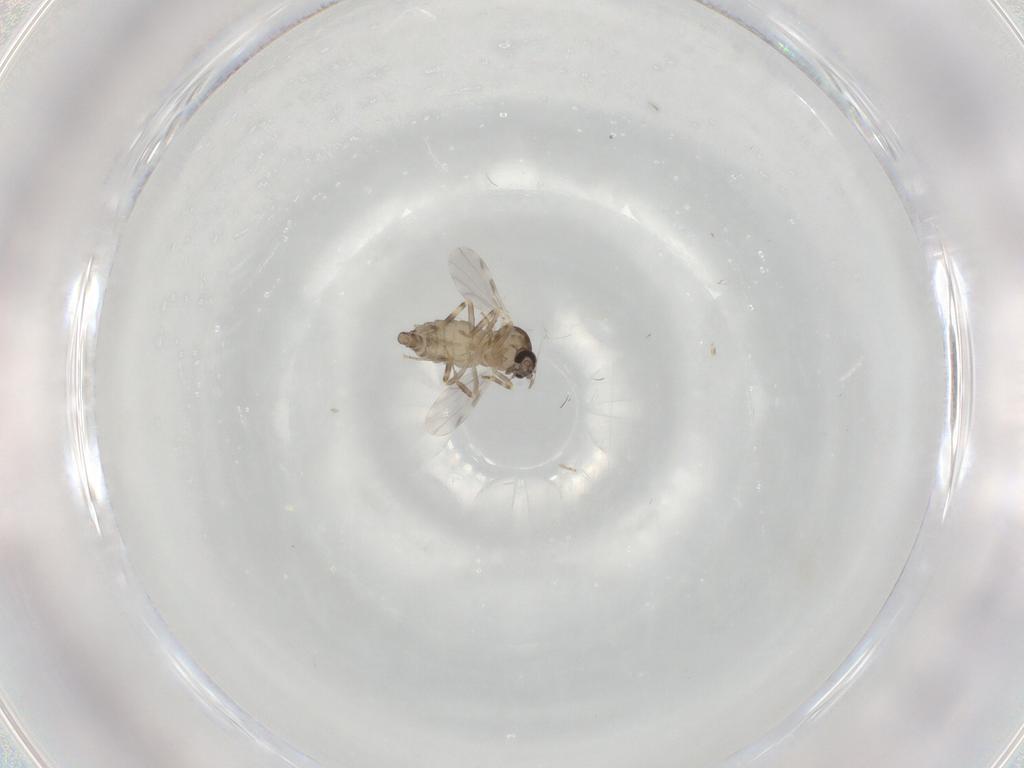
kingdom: Animalia
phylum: Arthropoda
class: Insecta
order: Diptera
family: Ceratopogonidae
